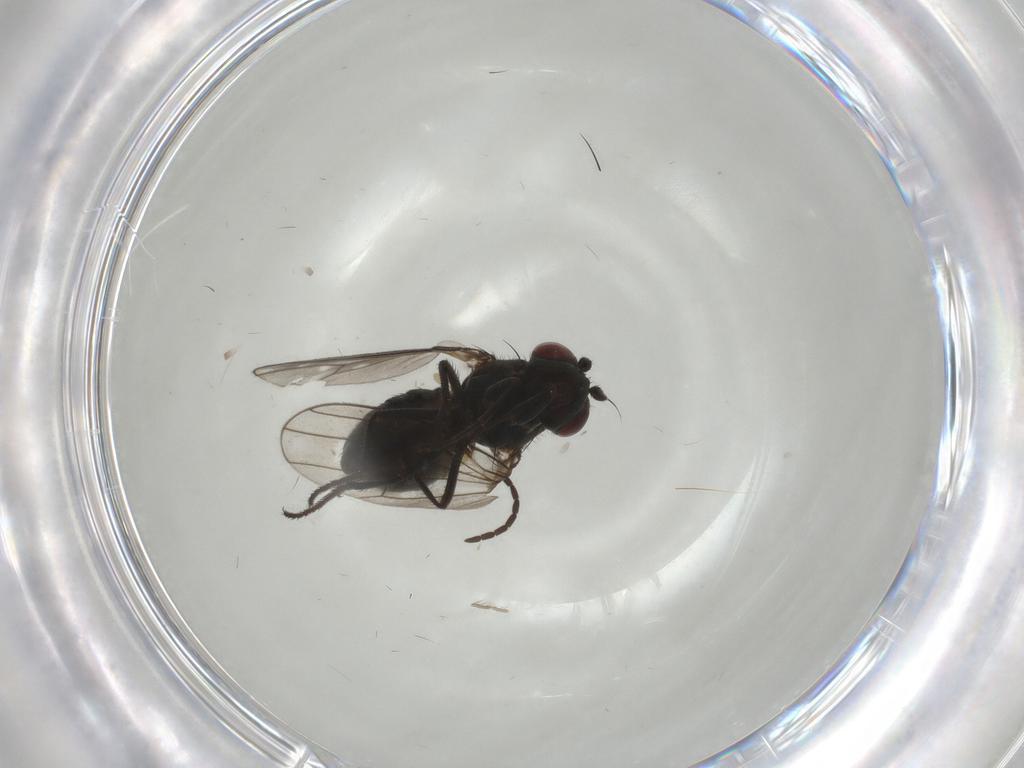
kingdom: Animalia
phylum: Arthropoda
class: Insecta
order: Diptera
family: Ephydridae
